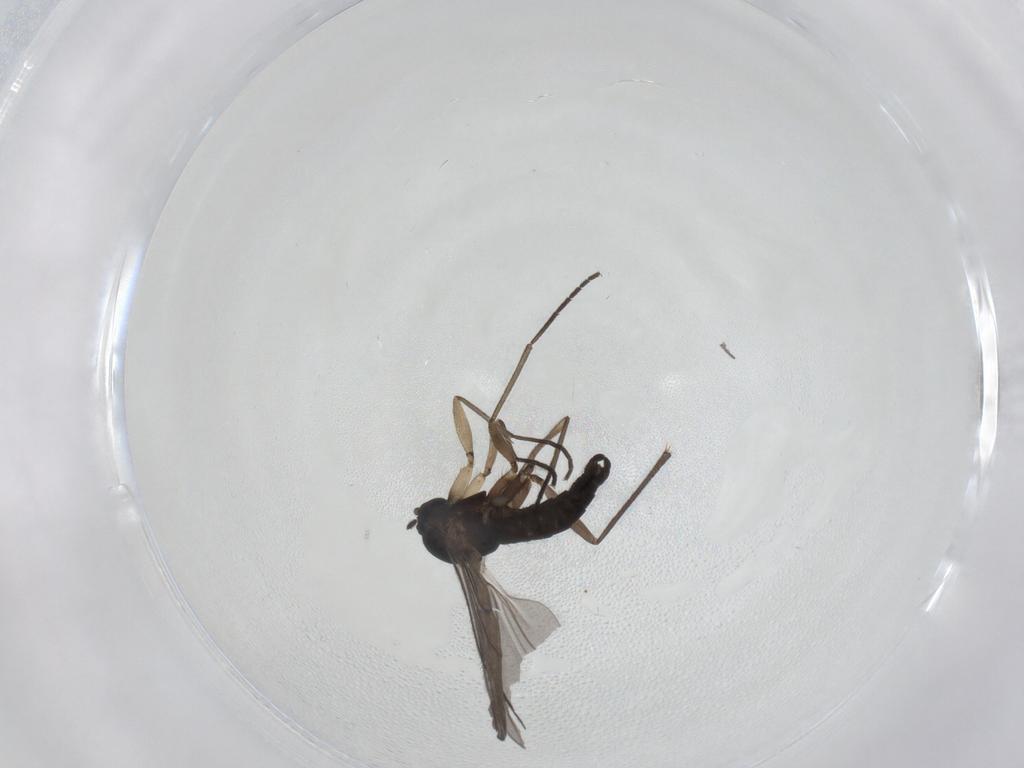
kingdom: Animalia
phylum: Arthropoda
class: Insecta
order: Diptera
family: Sciaridae
